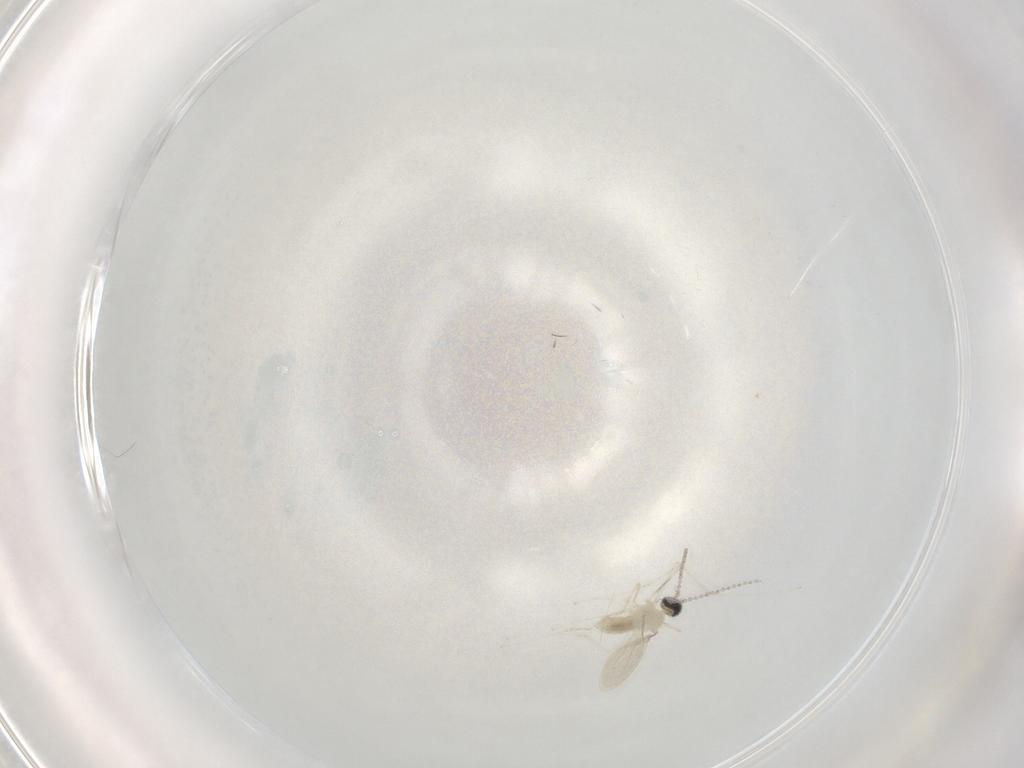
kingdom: Animalia
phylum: Arthropoda
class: Insecta
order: Diptera
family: Cecidomyiidae
